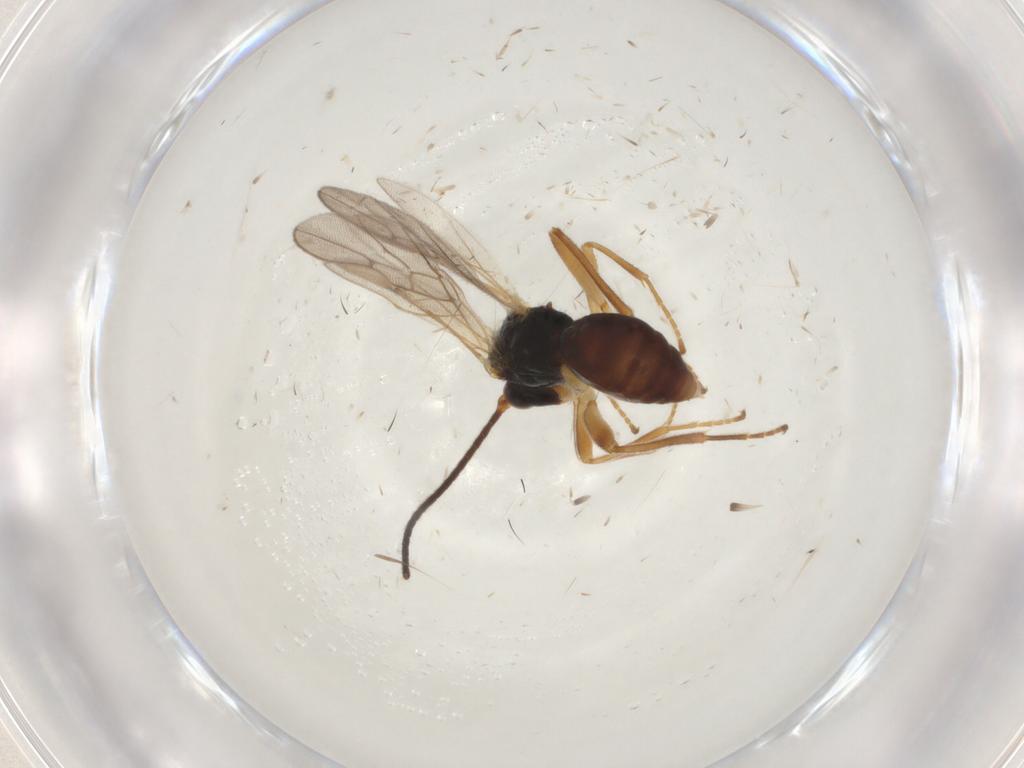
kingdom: Animalia
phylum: Arthropoda
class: Insecta
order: Hymenoptera
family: Braconidae
